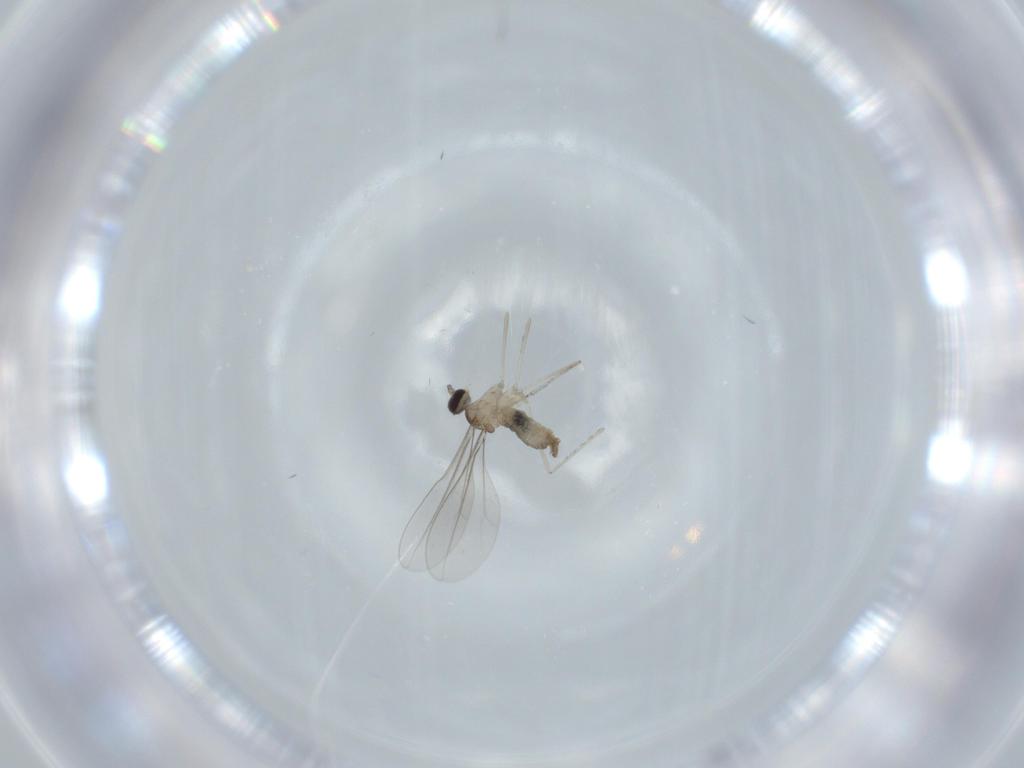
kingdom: Animalia
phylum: Arthropoda
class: Insecta
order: Diptera
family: Cecidomyiidae
